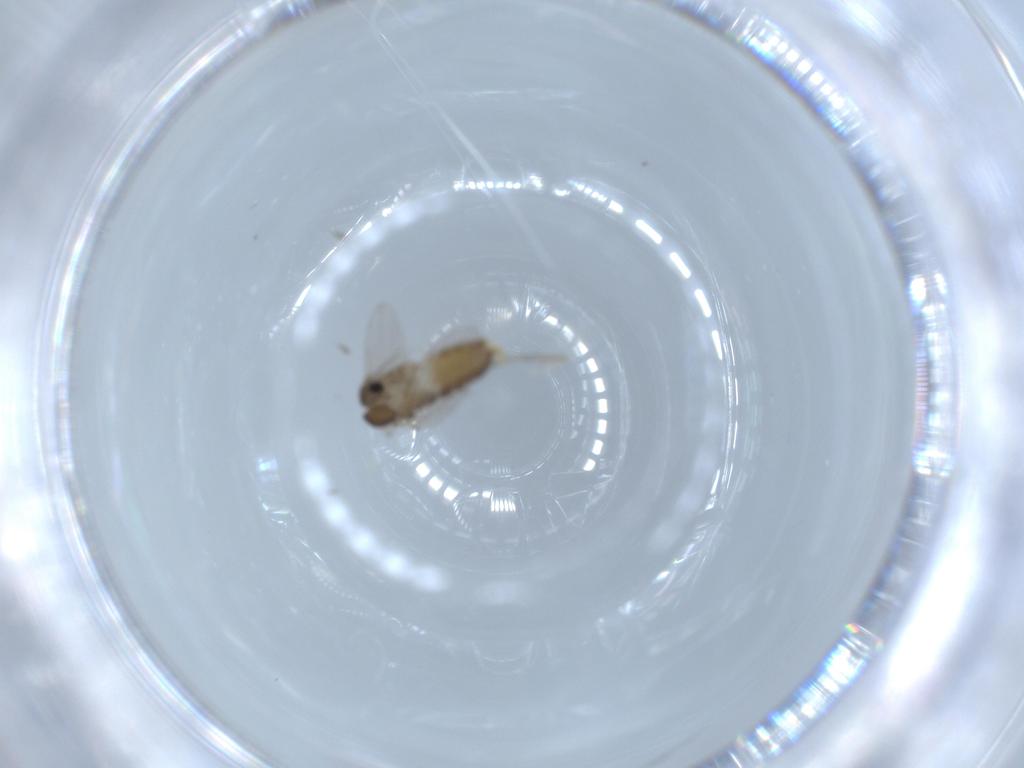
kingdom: Animalia
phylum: Arthropoda
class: Insecta
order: Diptera
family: Psychodidae
